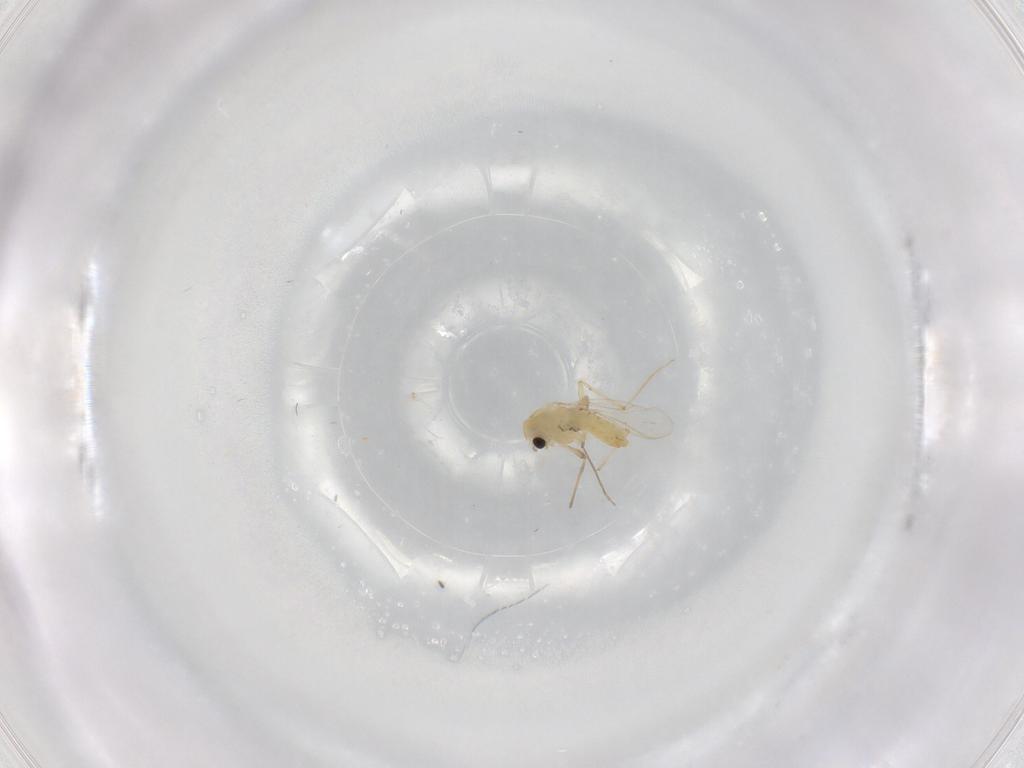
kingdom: Animalia
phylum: Arthropoda
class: Insecta
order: Diptera
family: Chironomidae
